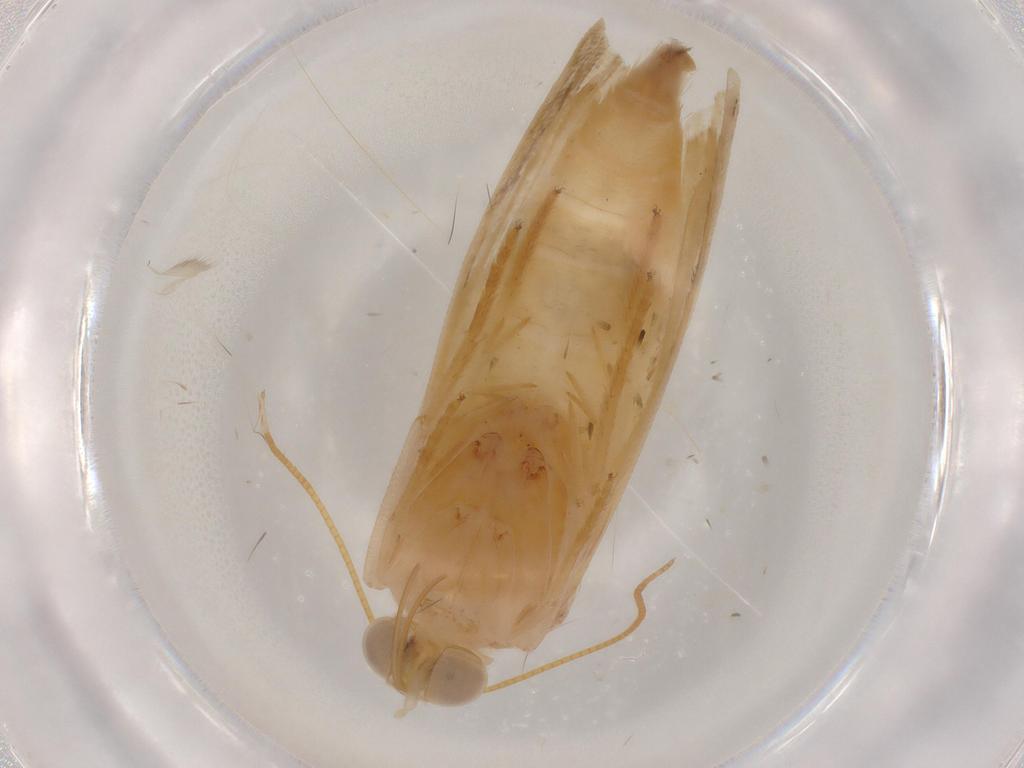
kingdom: Animalia
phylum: Arthropoda
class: Insecta
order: Lepidoptera
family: Noctuidae
